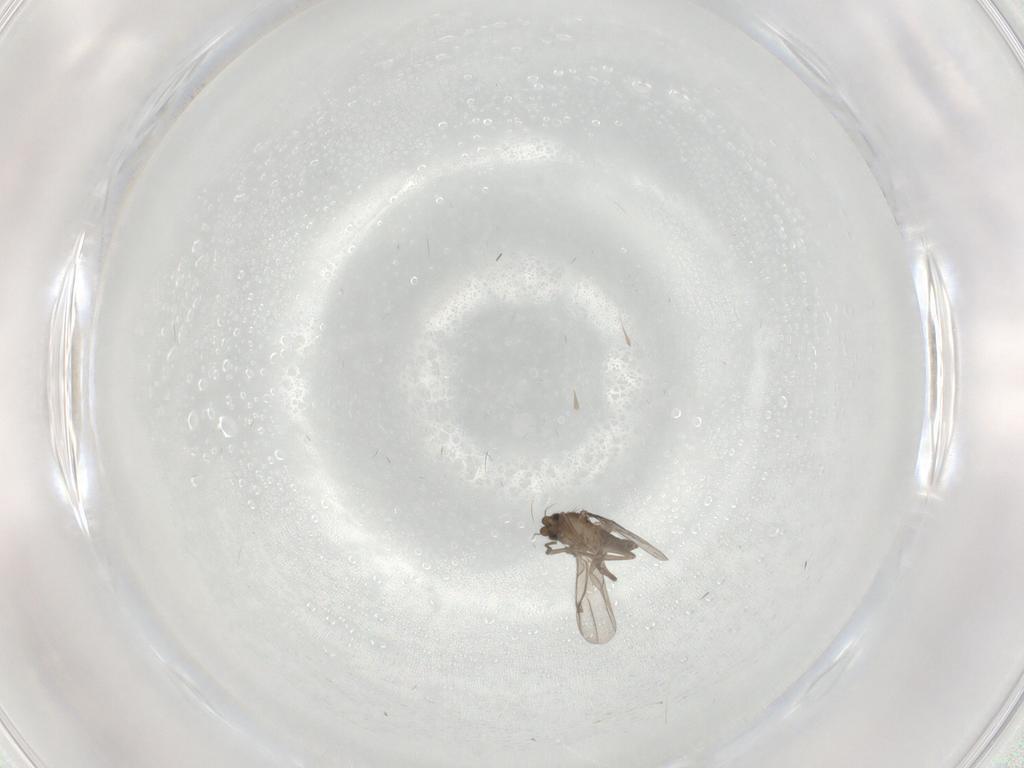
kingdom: Animalia
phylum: Arthropoda
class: Insecta
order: Diptera
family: Cecidomyiidae
